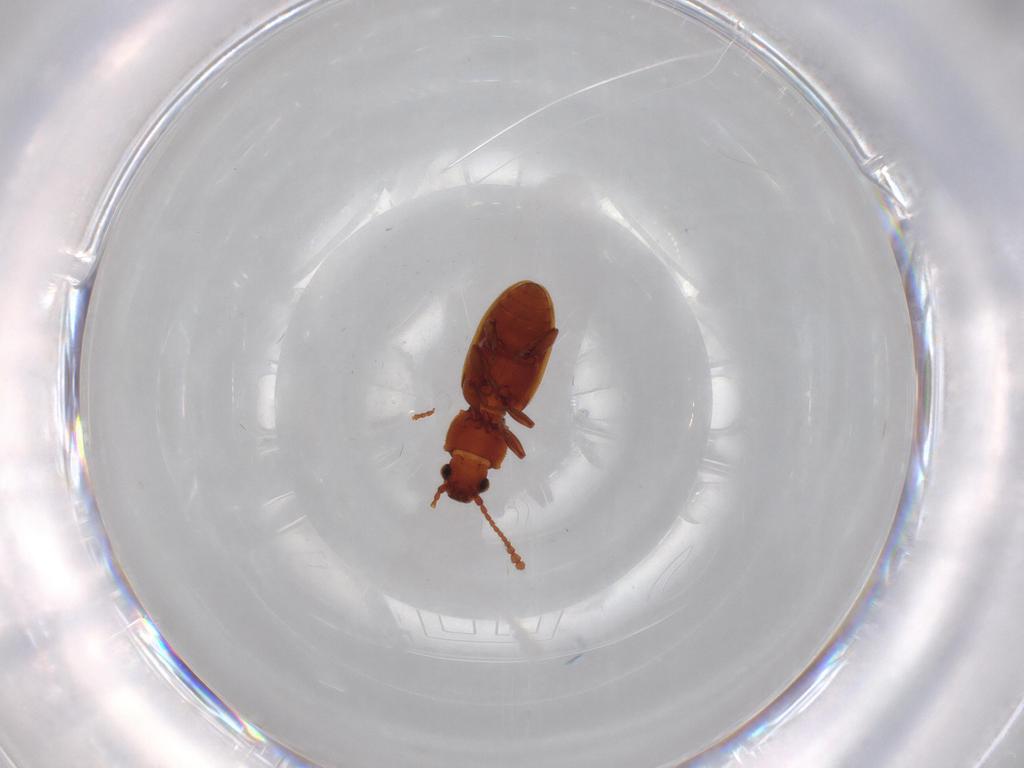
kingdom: Animalia
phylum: Arthropoda
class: Insecta
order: Coleoptera
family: Silvanidae
